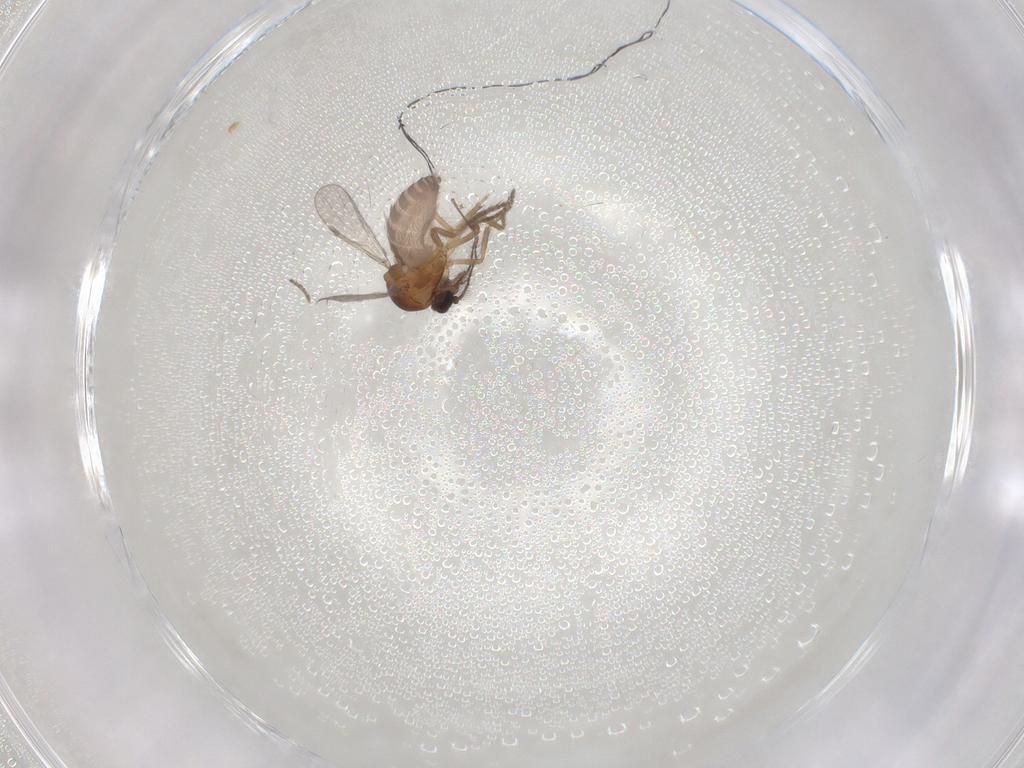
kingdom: Animalia
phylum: Arthropoda
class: Insecta
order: Diptera
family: Ceratopogonidae
